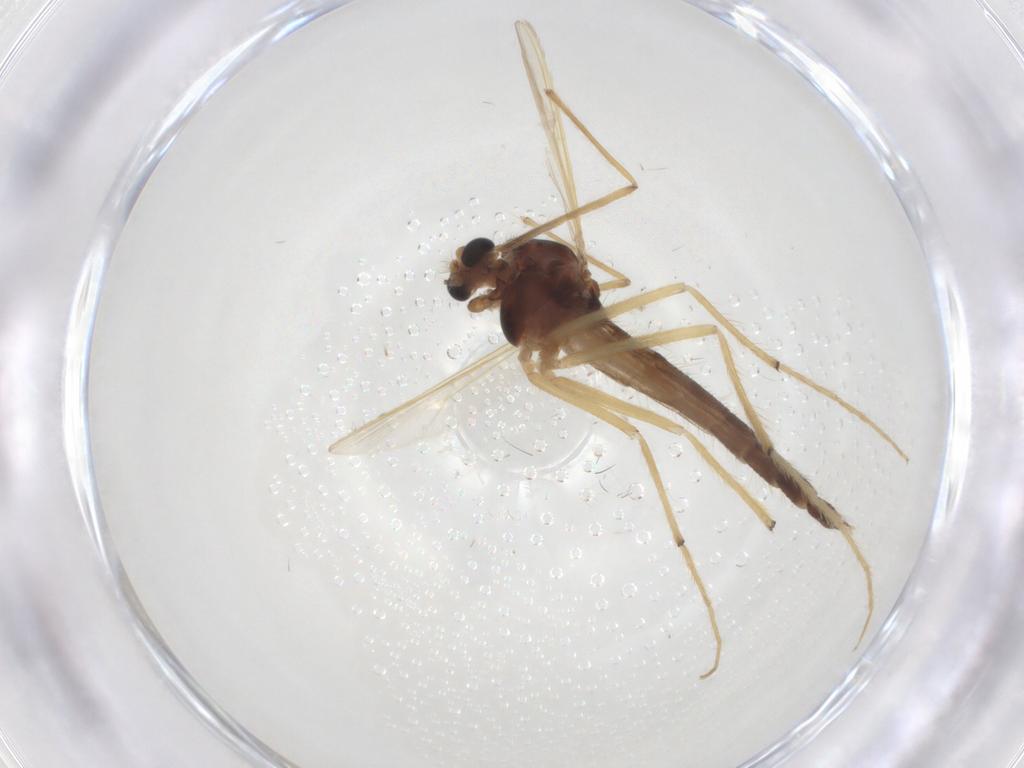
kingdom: Animalia
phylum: Arthropoda
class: Insecta
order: Diptera
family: Chironomidae
